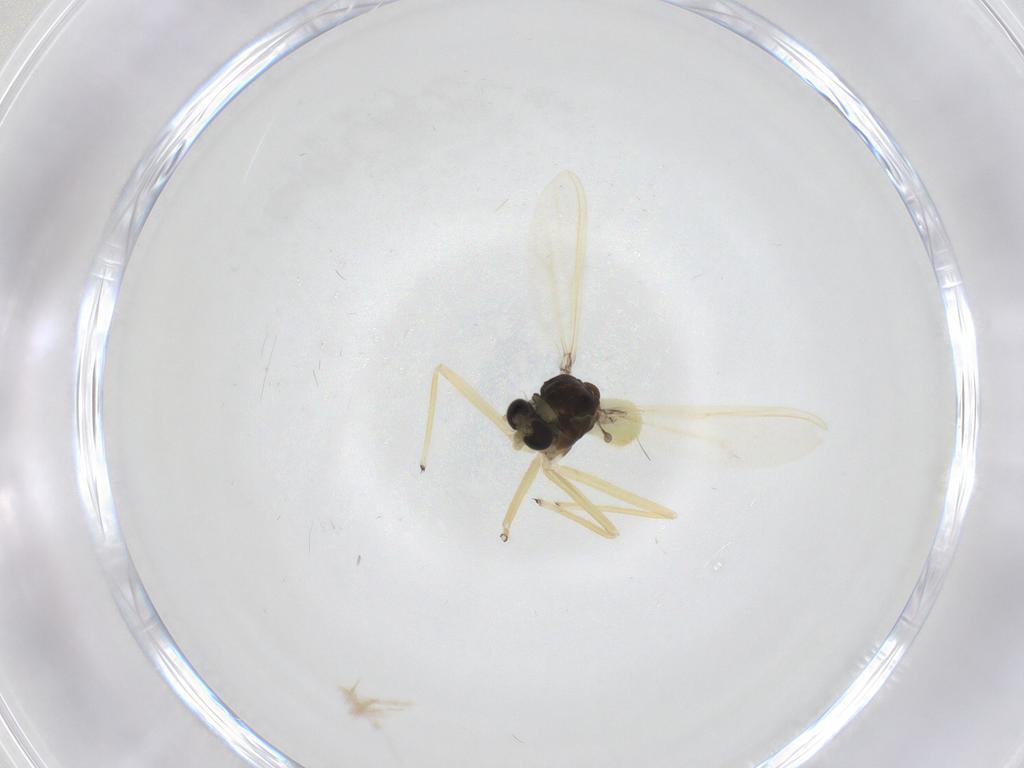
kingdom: Animalia
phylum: Arthropoda
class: Insecta
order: Diptera
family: Chironomidae
